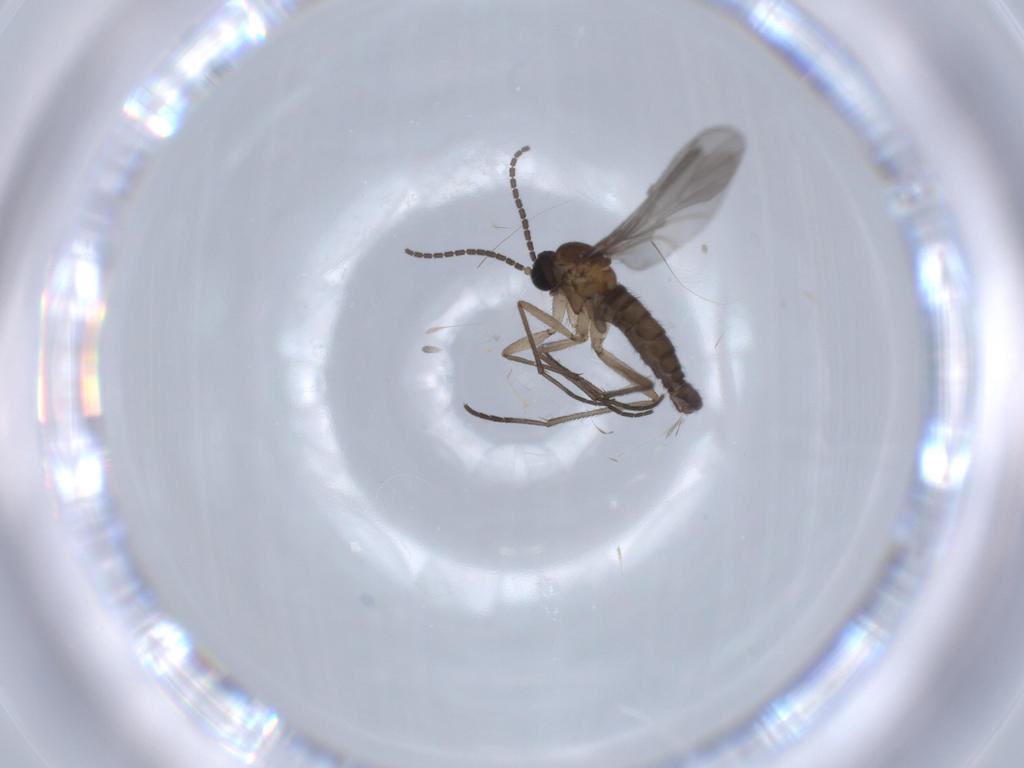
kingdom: Animalia
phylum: Arthropoda
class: Insecta
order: Diptera
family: Sciaridae
